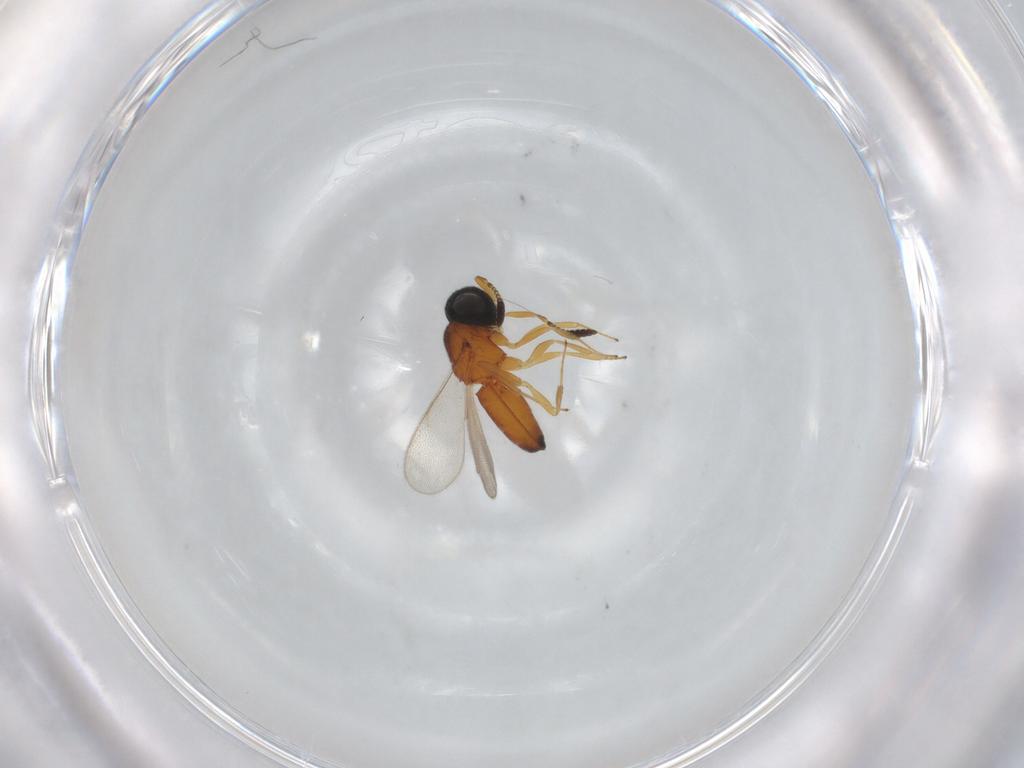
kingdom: Animalia
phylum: Arthropoda
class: Insecta
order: Hymenoptera
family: Scelionidae
